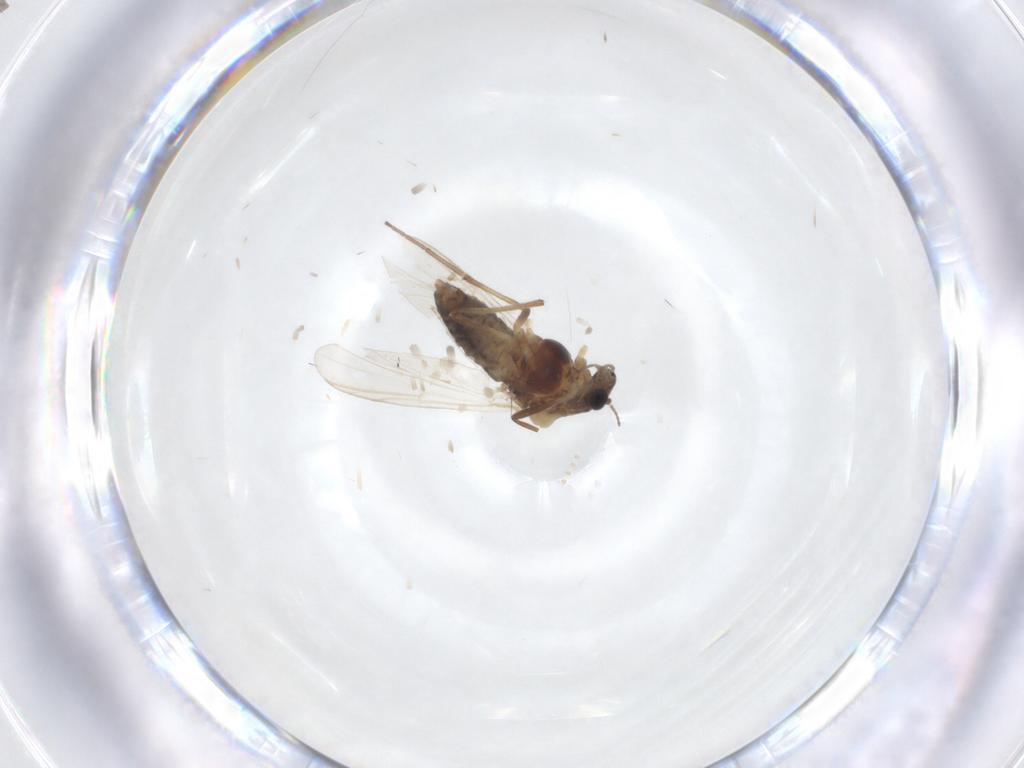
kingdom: Animalia
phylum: Arthropoda
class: Insecta
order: Diptera
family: Chironomidae
